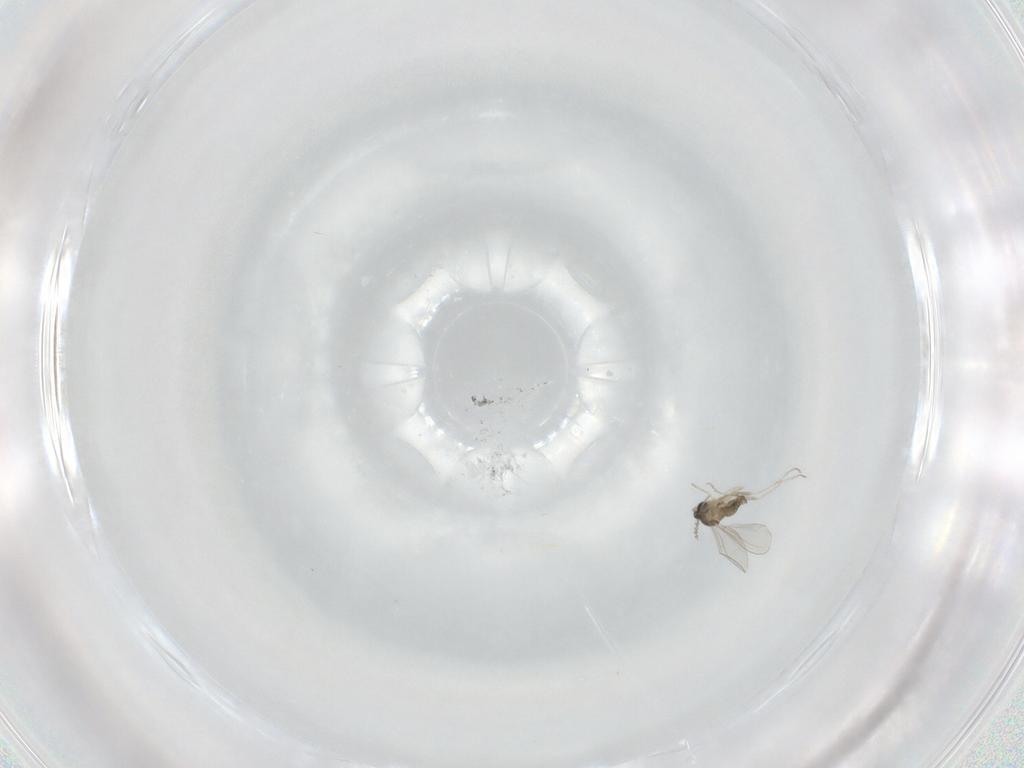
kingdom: Animalia
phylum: Arthropoda
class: Insecta
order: Diptera
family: Cecidomyiidae
